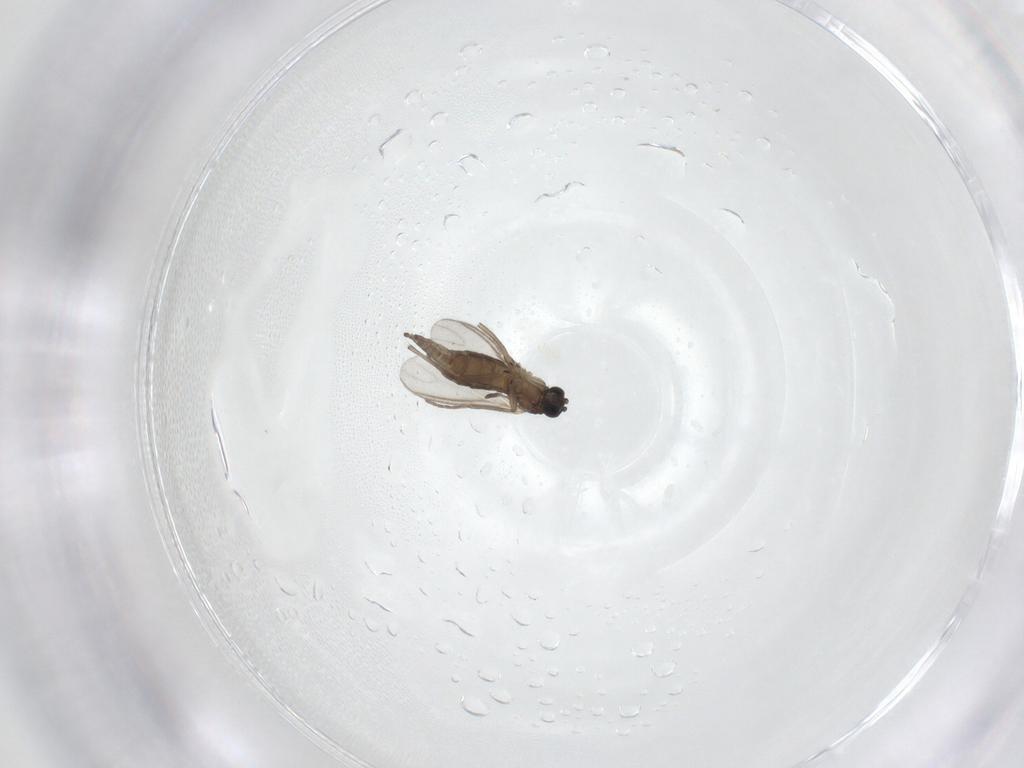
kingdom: Animalia
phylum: Arthropoda
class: Insecta
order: Diptera
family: Sciaridae
